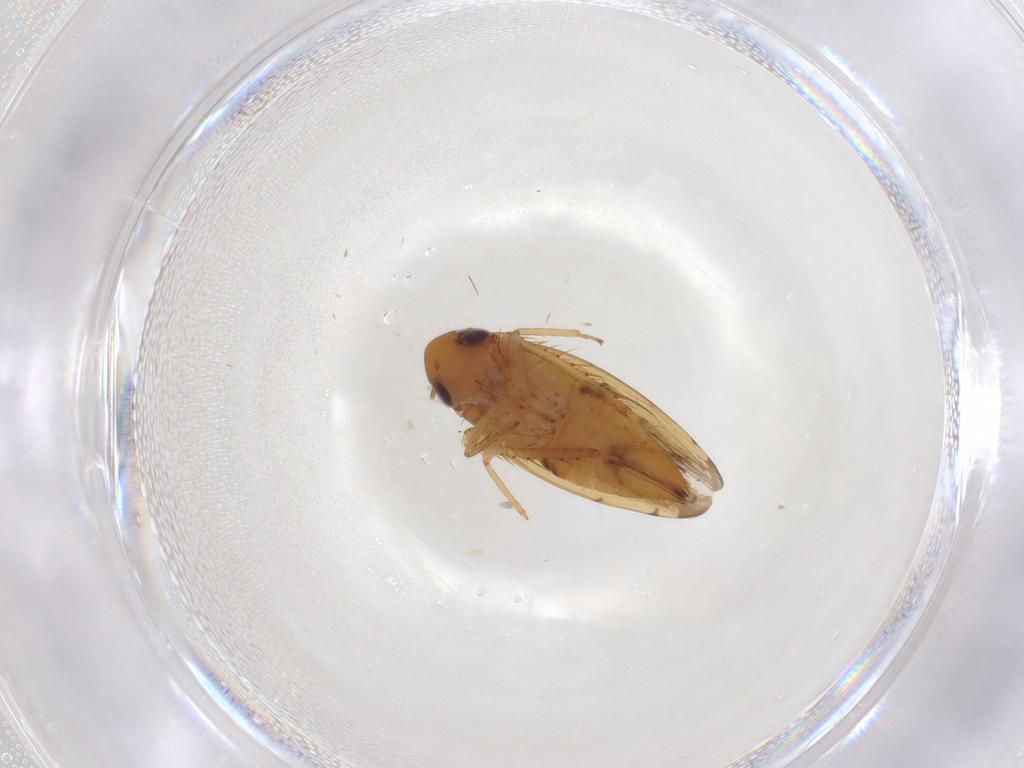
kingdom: Animalia
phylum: Arthropoda
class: Insecta
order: Hemiptera
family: Cicadellidae
